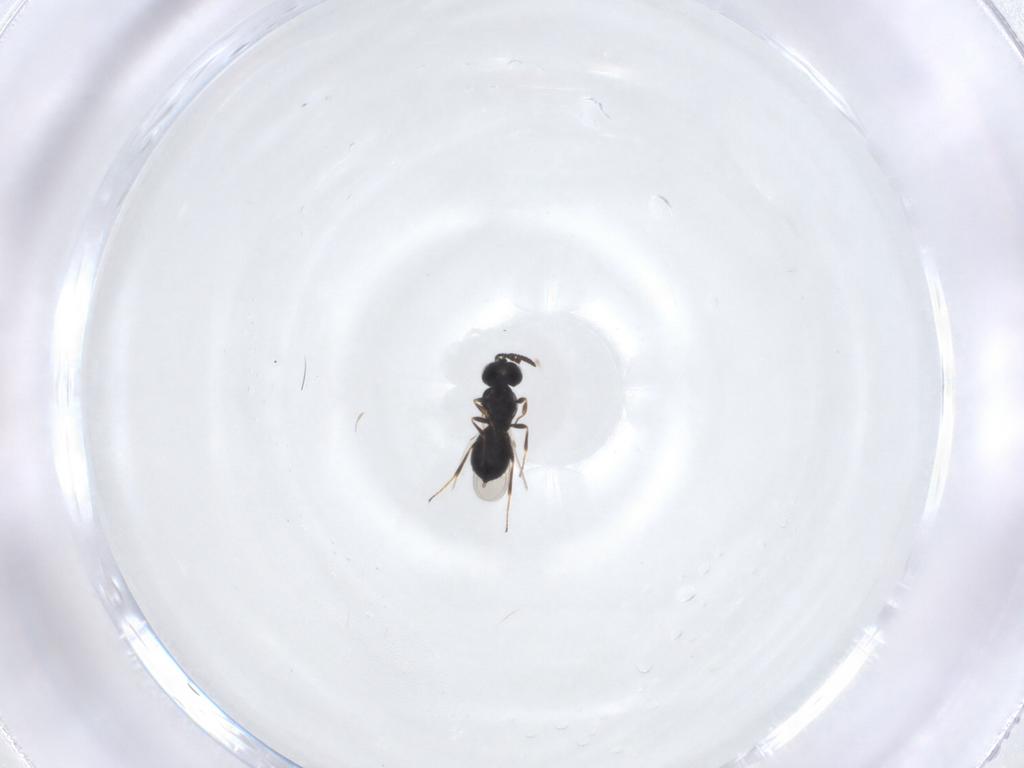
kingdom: Animalia
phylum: Arthropoda
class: Insecta
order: Hymenoptera
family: Scelionidae
